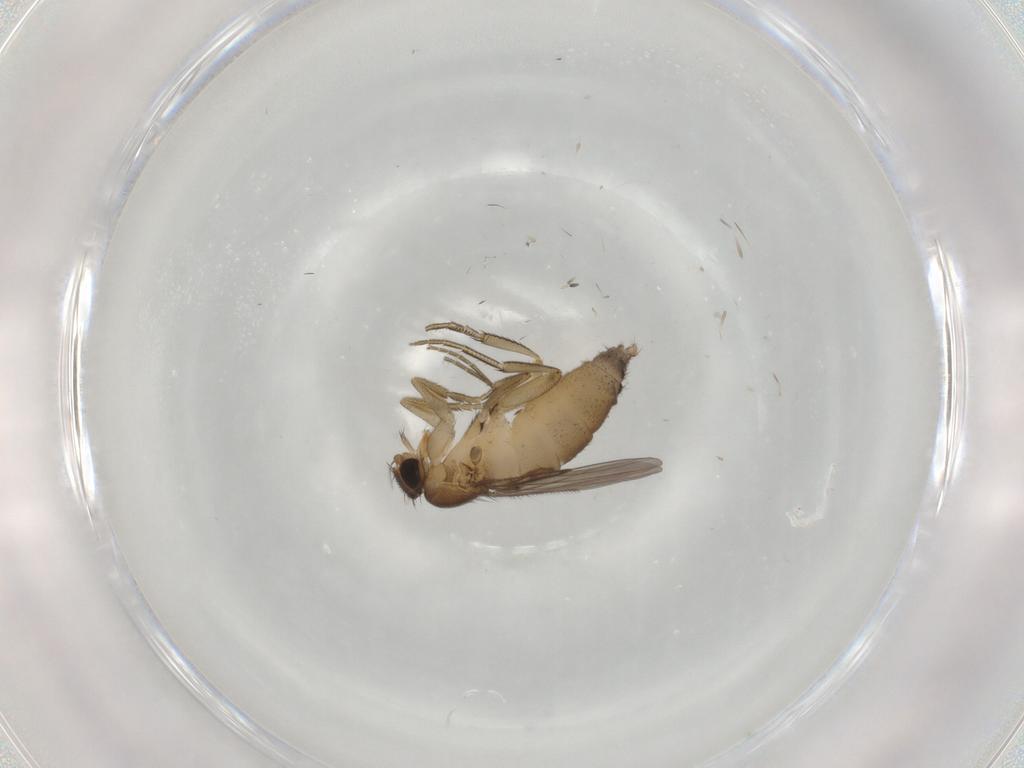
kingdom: Animalia
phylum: Arthropoda
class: Insecta
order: Diptera
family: Phoridae
